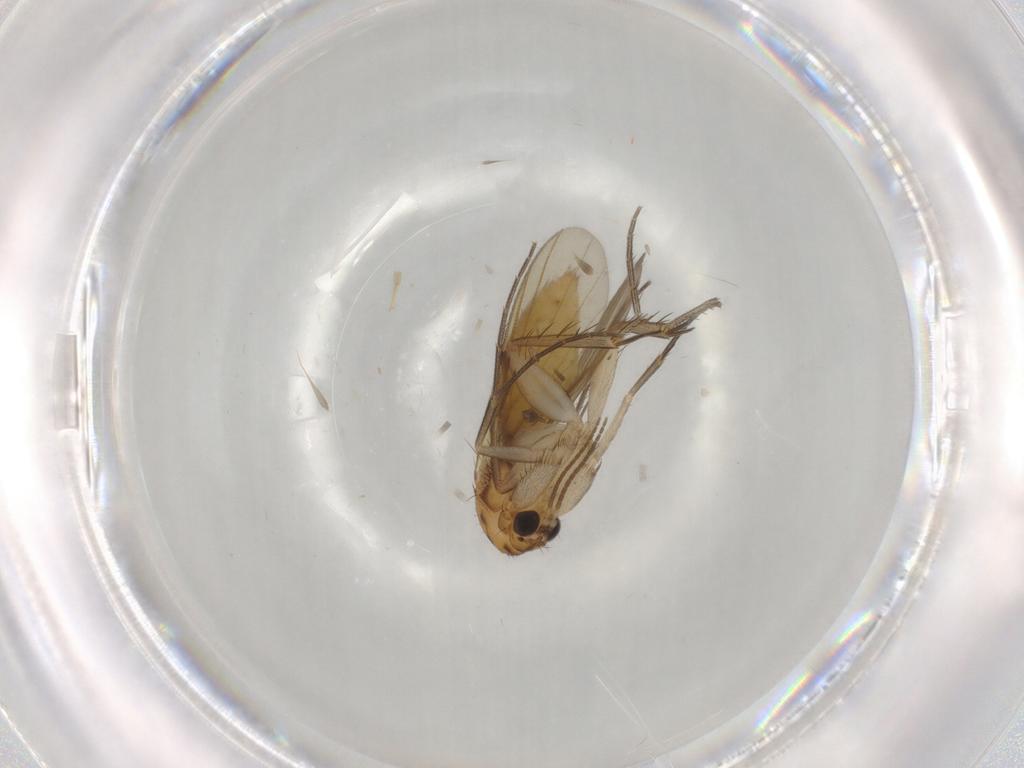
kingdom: Animalia
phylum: Arthropoda
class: Insecta
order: Diptera
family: Mycetophilidae
